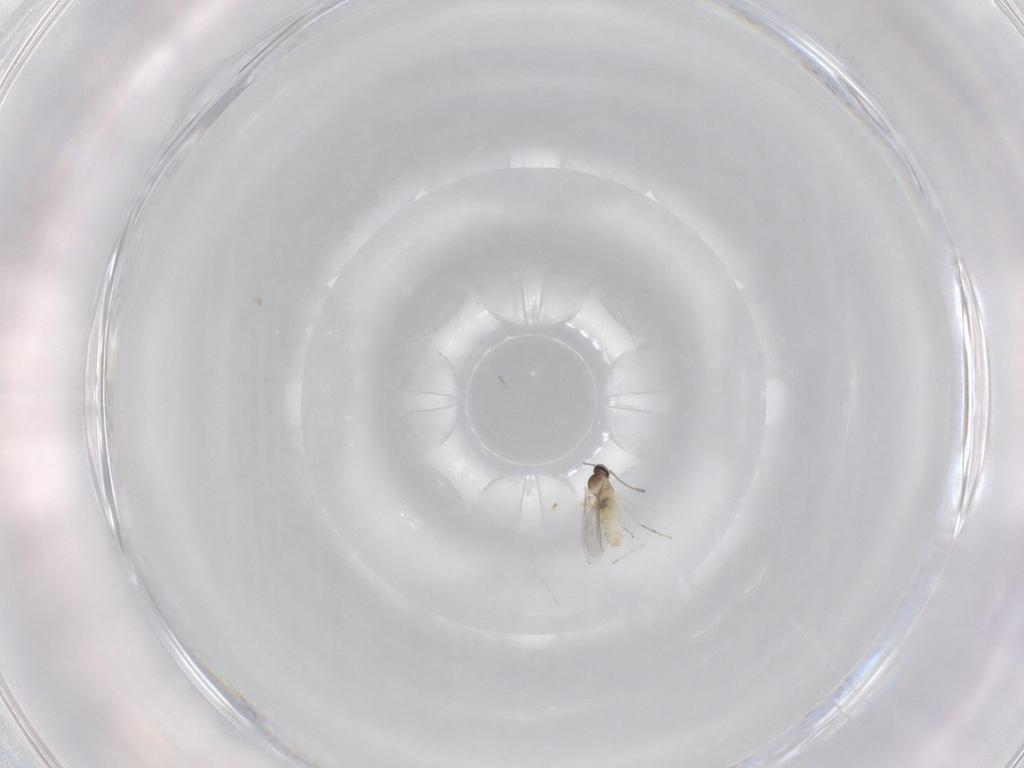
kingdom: Animalia
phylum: Arthropoda
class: Insecta
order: Diptera
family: Cecidomyiidae
